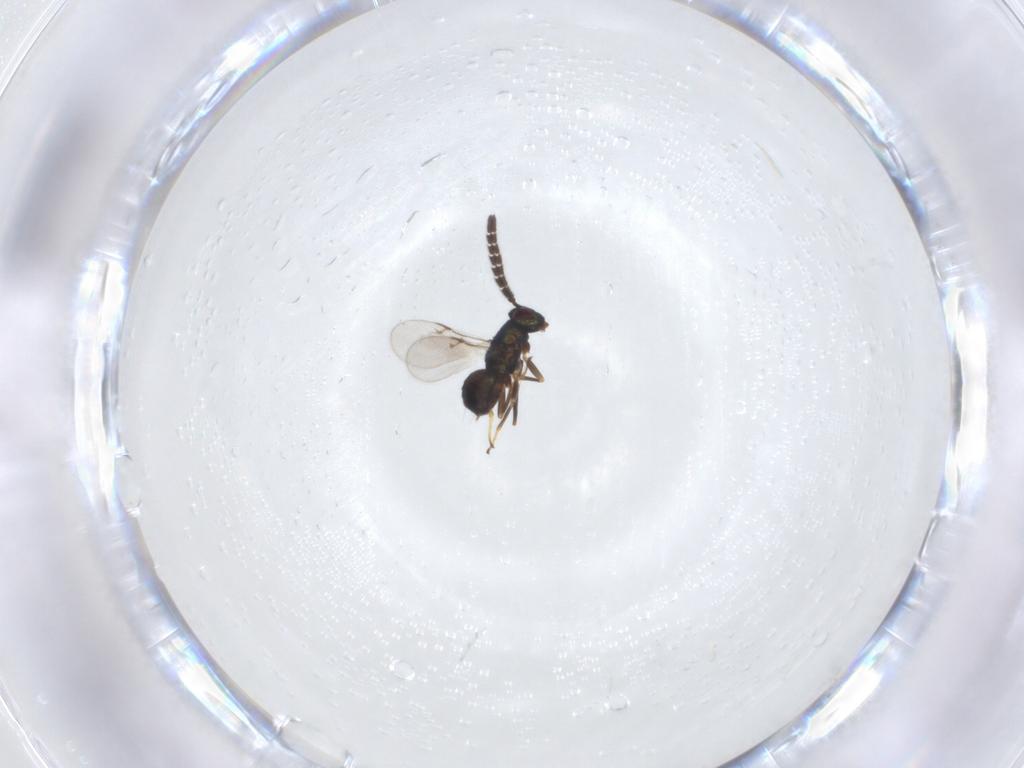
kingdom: Animalia
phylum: Arthropoda
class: Insecta
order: Hymenoptera
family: Encyrtidae
